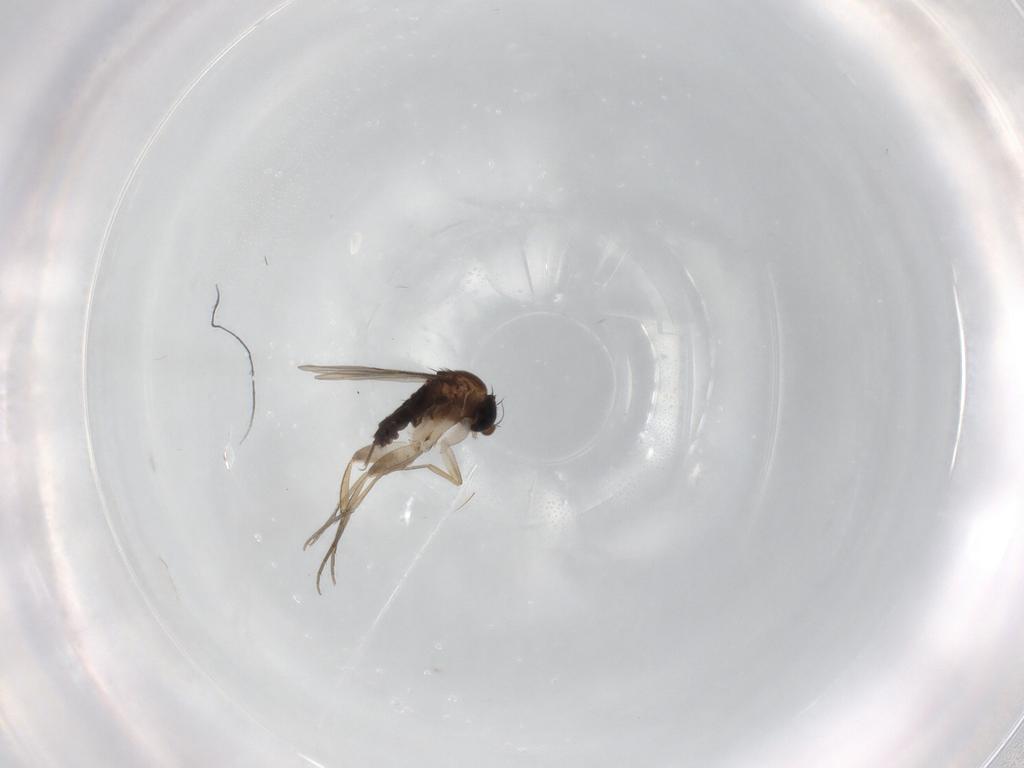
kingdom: Animalia
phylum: Arthropoda
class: Insecta
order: Diptera
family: Phoridae
